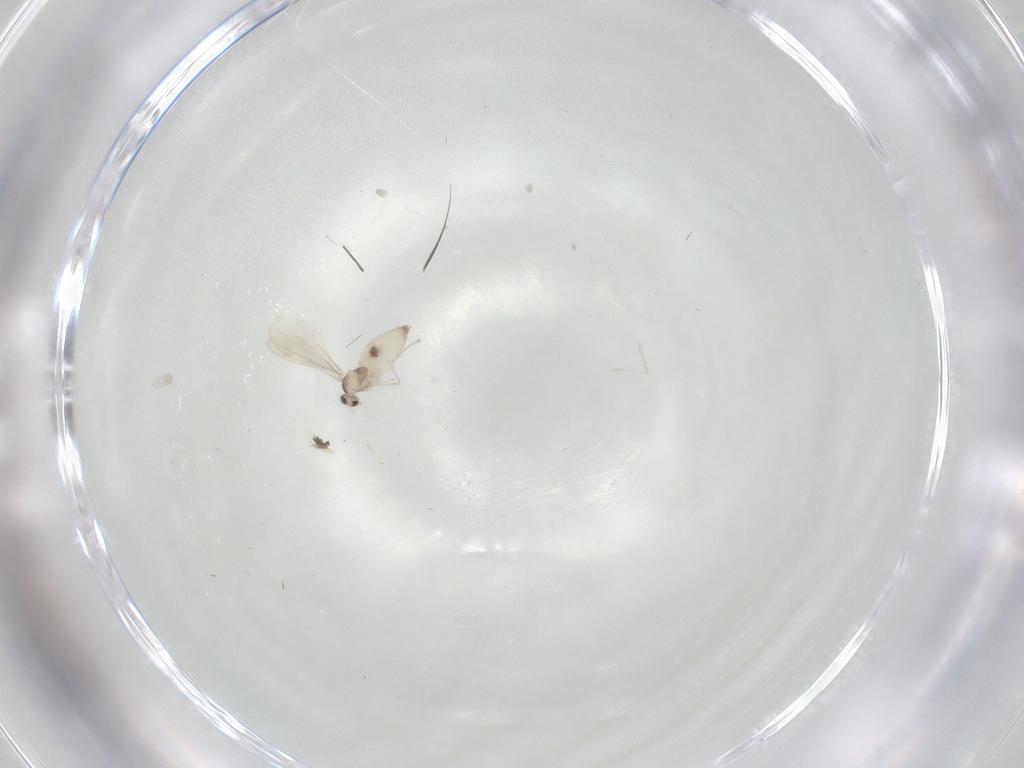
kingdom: Animalia
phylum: Arthropoda
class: Insecta
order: Diptera
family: Cecidomyiidae
